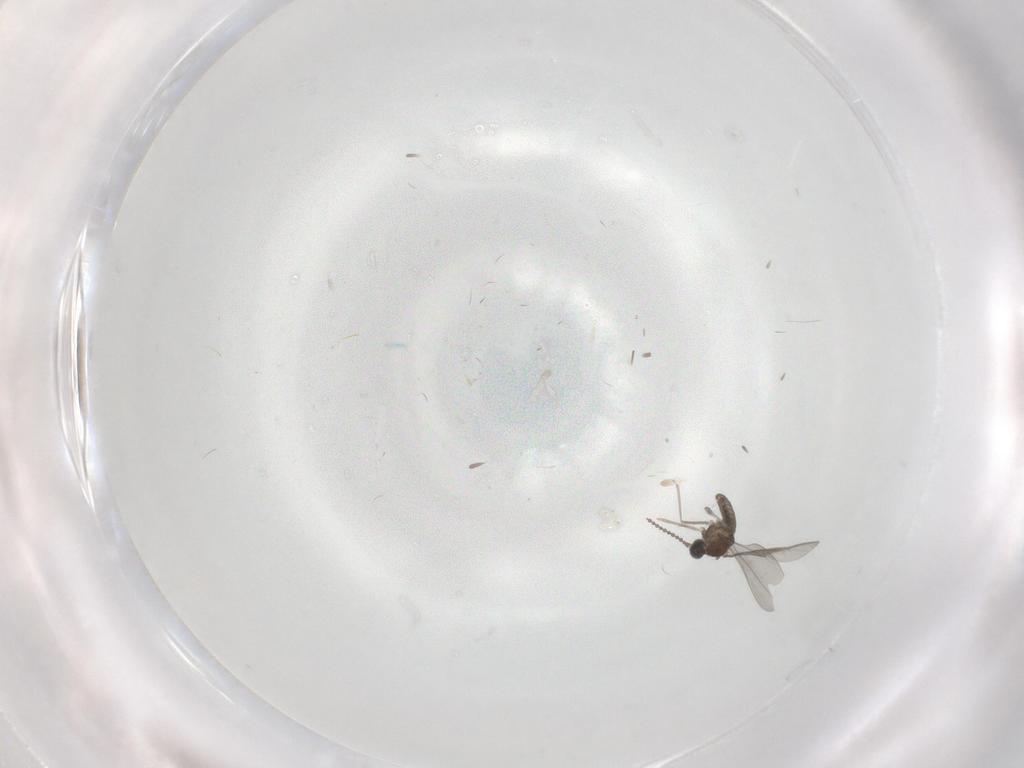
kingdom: Animalia
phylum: Arthropoda
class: Insecta
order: Diptera
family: Cecidomyiidae
